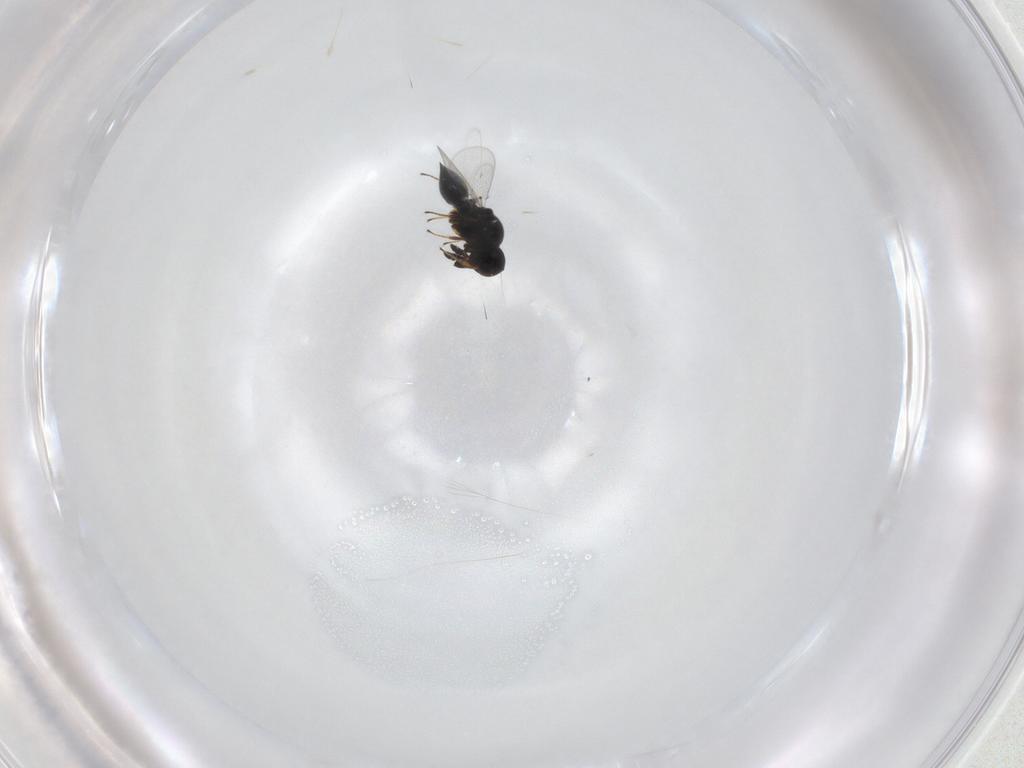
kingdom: Animalia
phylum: Arthropoda
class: Insecta
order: Hymenoptera
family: Platygastridae
